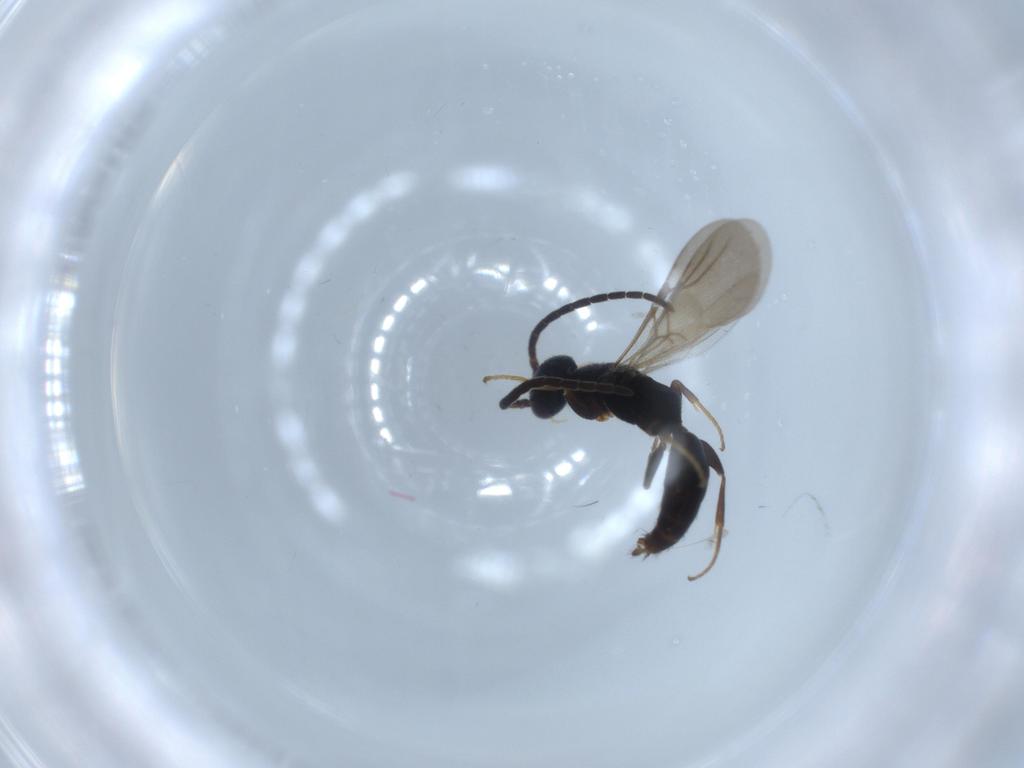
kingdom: Animalia
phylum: Arthropoda
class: Insecta
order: Hymenoptera
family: Bethylidae
